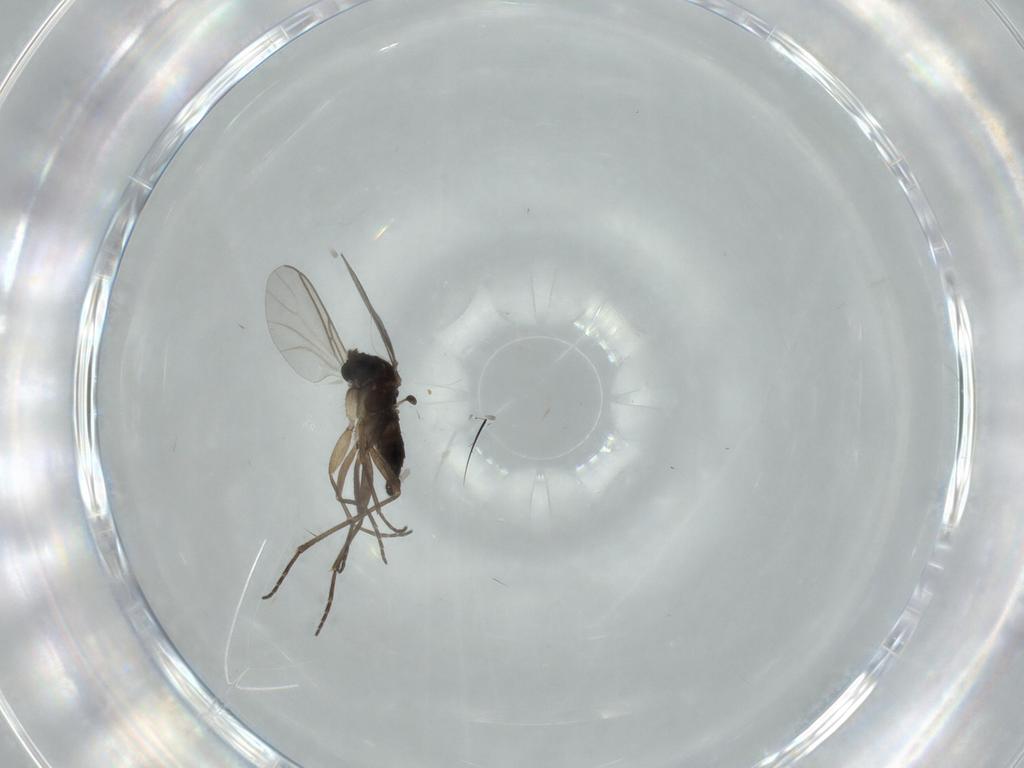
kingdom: Animalia
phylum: Arthropoda
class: Insecta
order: Diptera
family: Sciaridae
